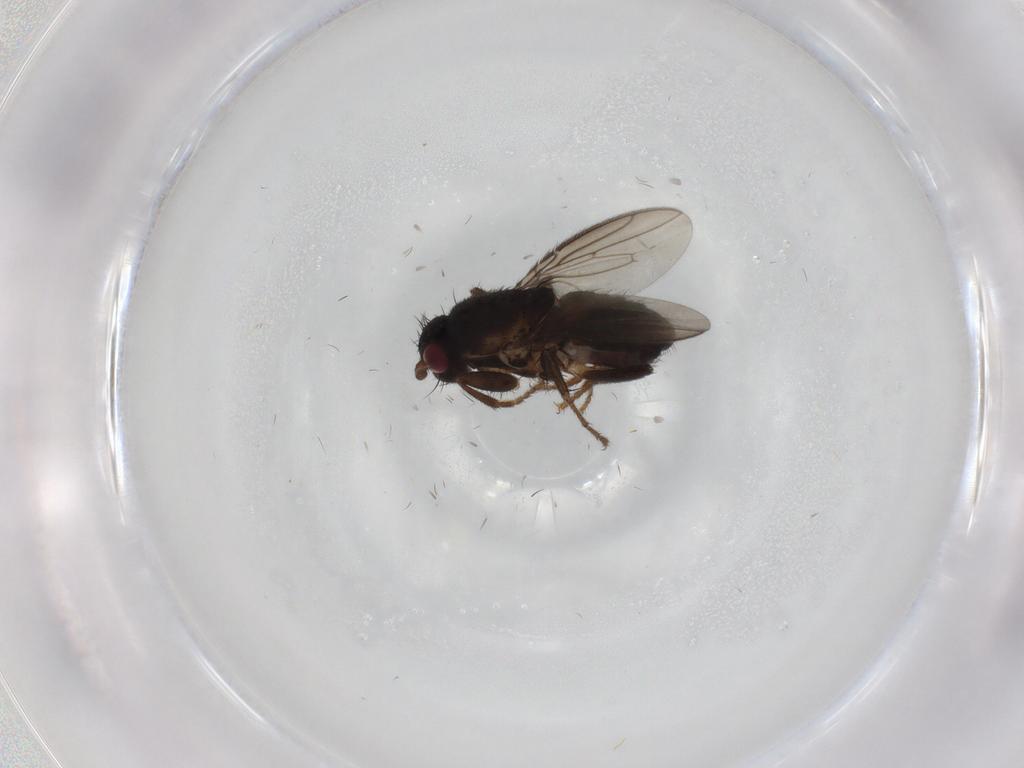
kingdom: Animalia
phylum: Arthropoda
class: Insecta
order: Diptera
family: Sphaeroceridae
